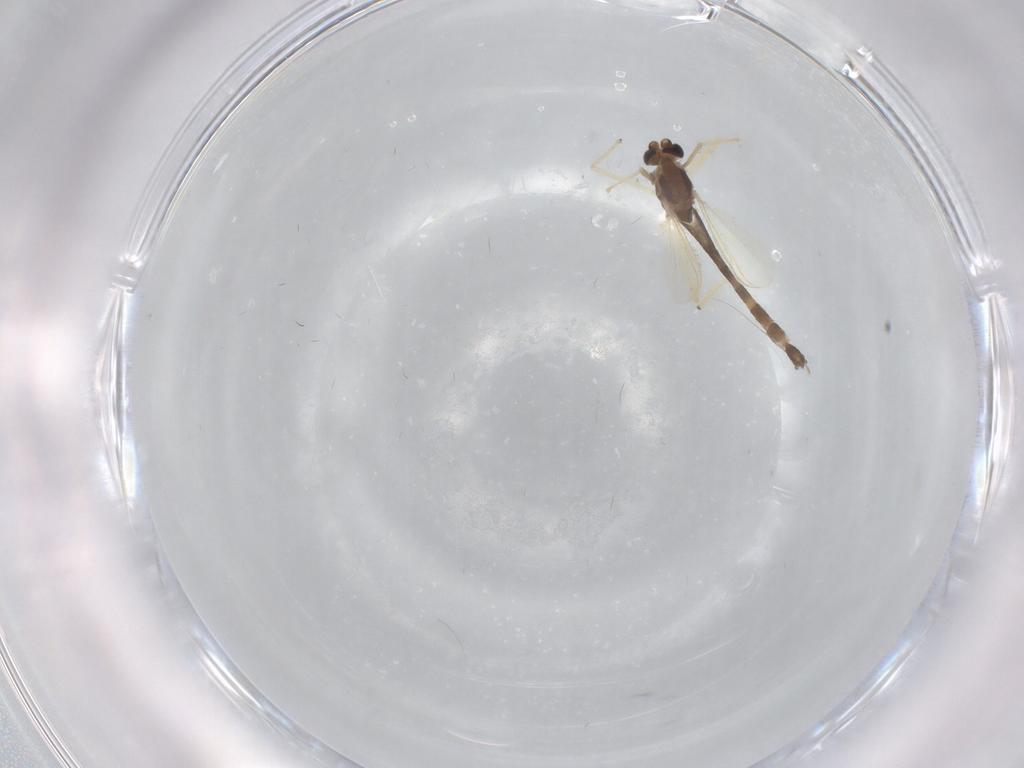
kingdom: Animalia
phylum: Arthropoda
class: Insecta
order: Diptera
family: Chironomidae
